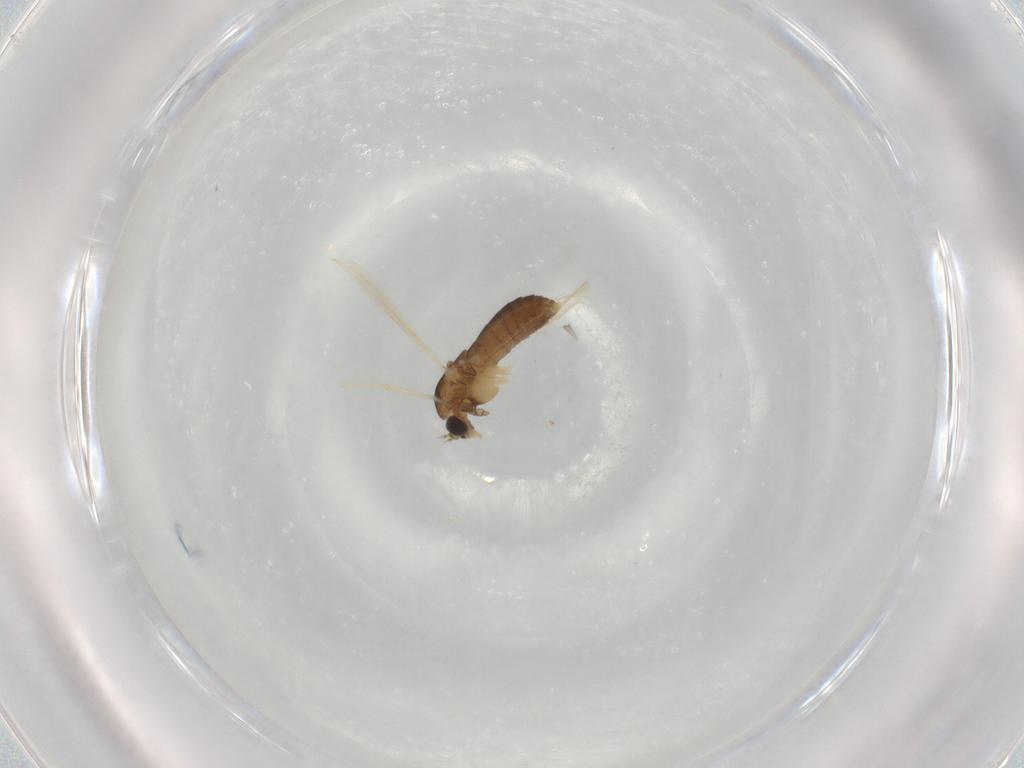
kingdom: Animalia
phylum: Arthropoda
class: Insecta
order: Diptera
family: Chironomidae
